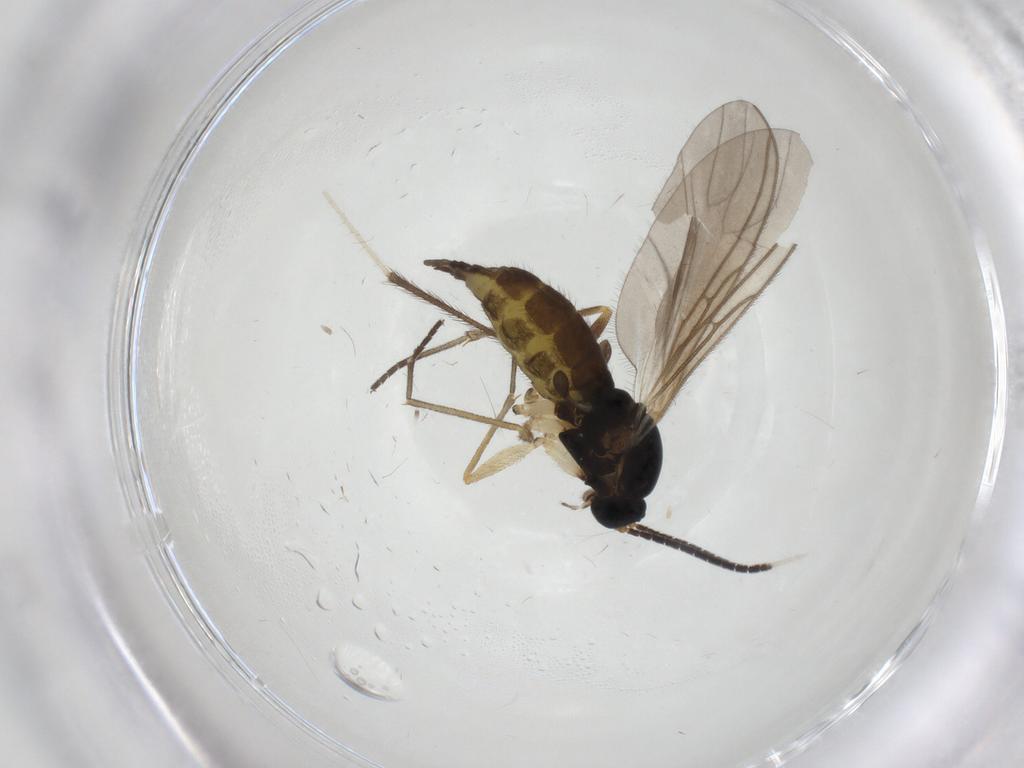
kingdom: Animalia
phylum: Arthropoda
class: Insecta
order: Diptera
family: Sciaridae
